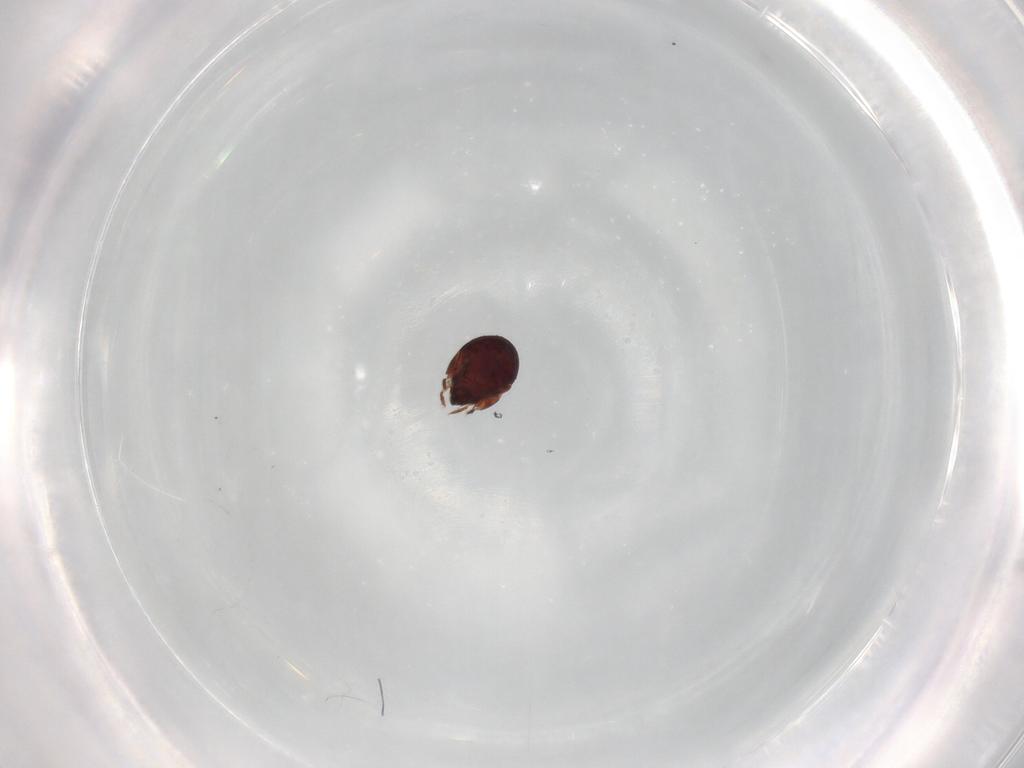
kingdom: Animalia
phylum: Arthropoda
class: Arachnida
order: Sarcoptiformes
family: Humerobatidae
